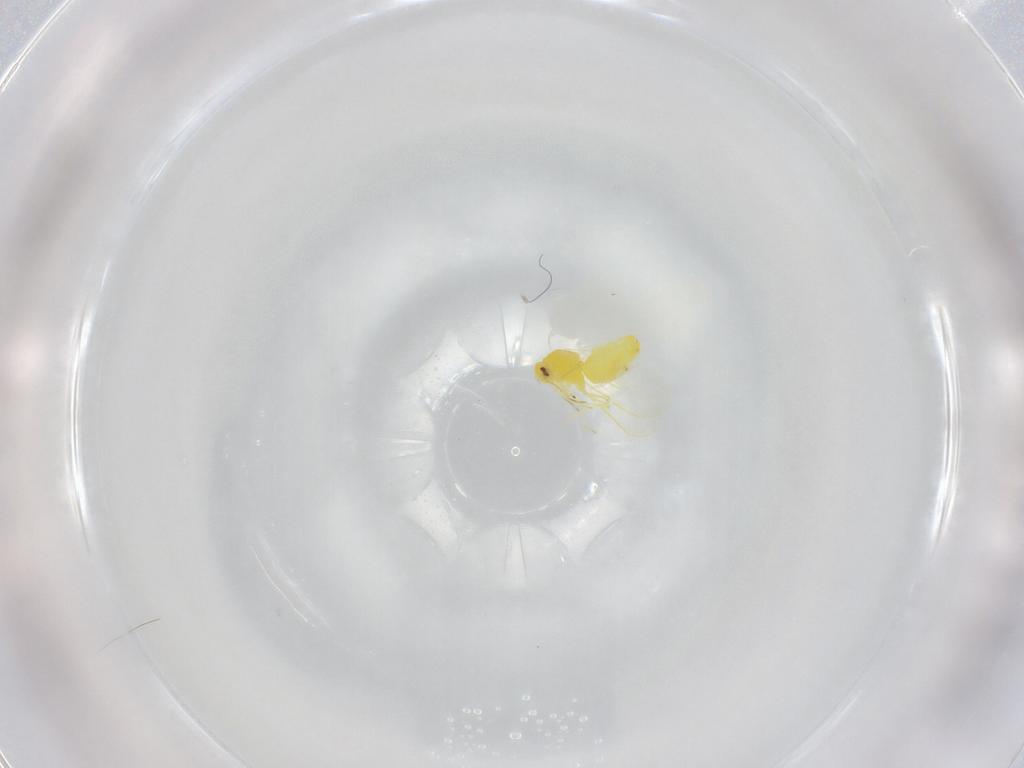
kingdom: Animalia
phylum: Arthropoda
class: Insecta
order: Hemiptera
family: Aleyrodidae
